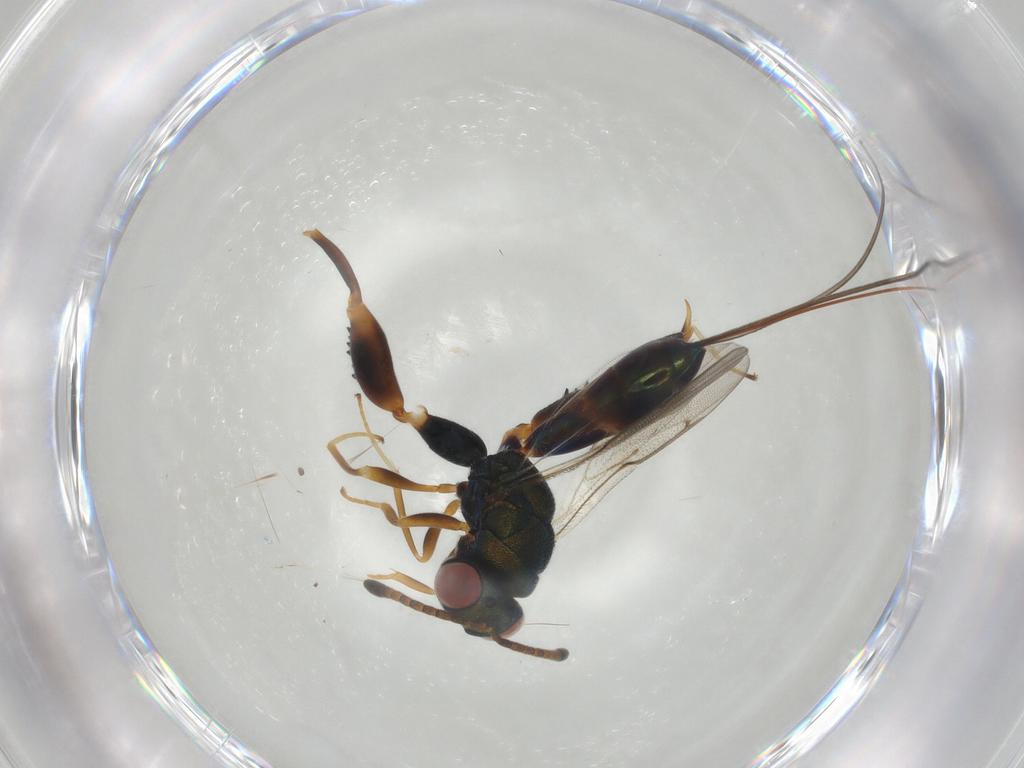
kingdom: Animalia
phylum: Arthropoda
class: Insecta
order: Hymenoptera
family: Torymidae
